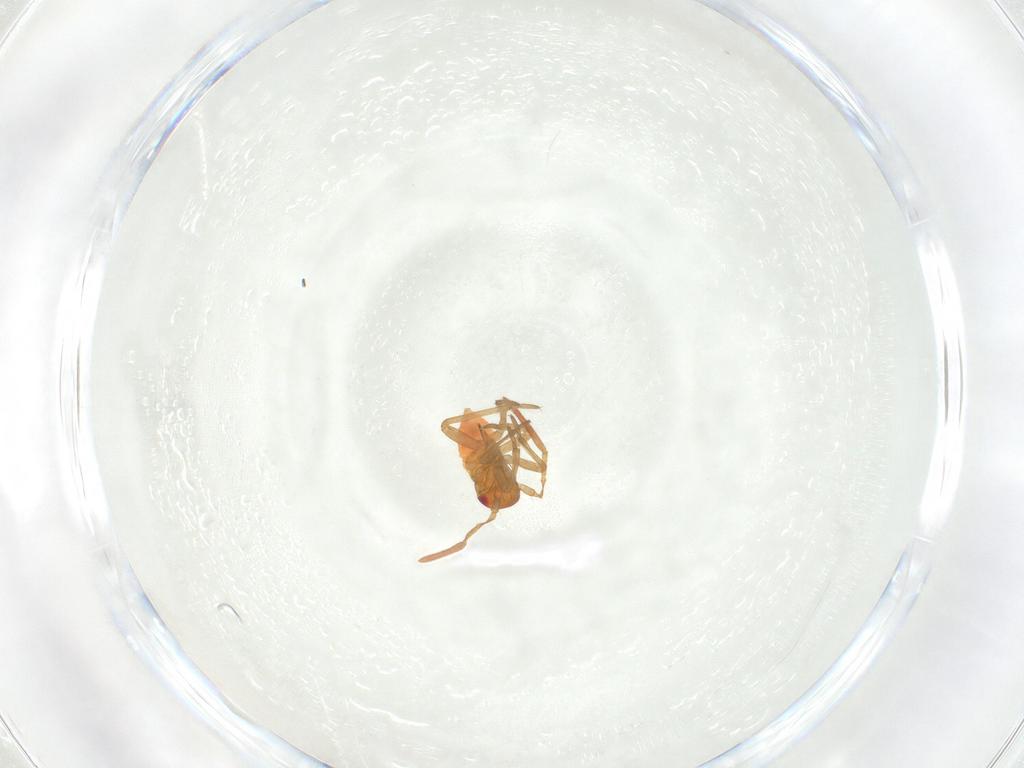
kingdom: Animalia
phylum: Arthropoda
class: Insecta
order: Hemiptera
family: Miridae
